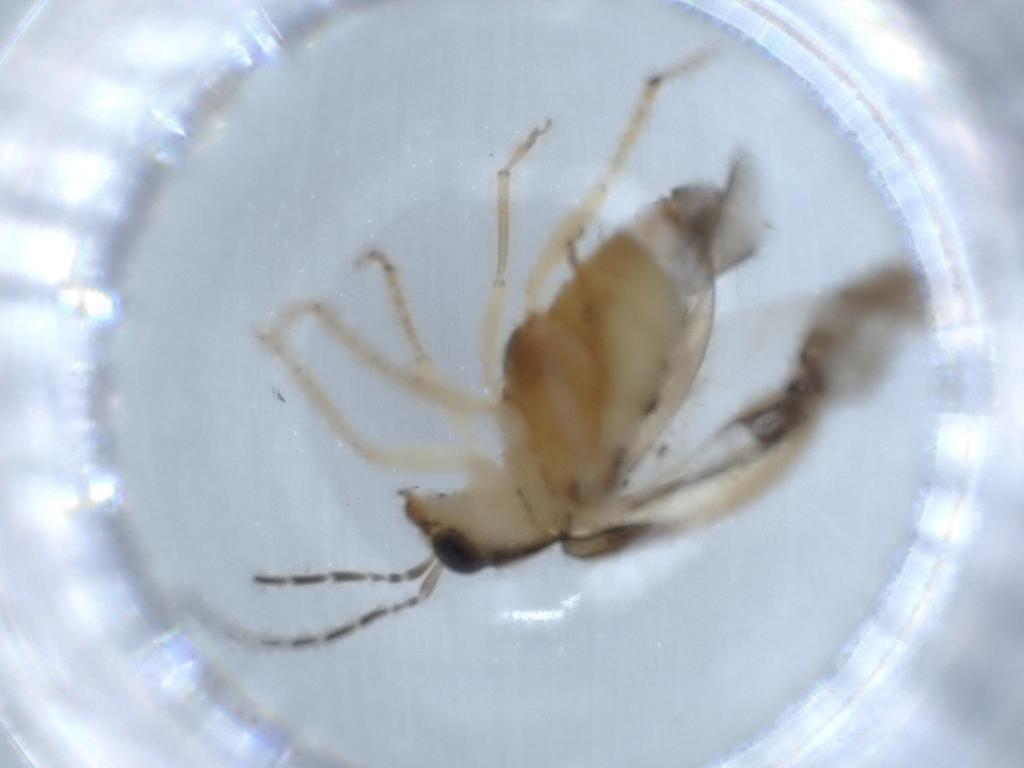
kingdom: Animalia
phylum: Arthropoda
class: Insecta
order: Coleoptera
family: Chrysomelidae
